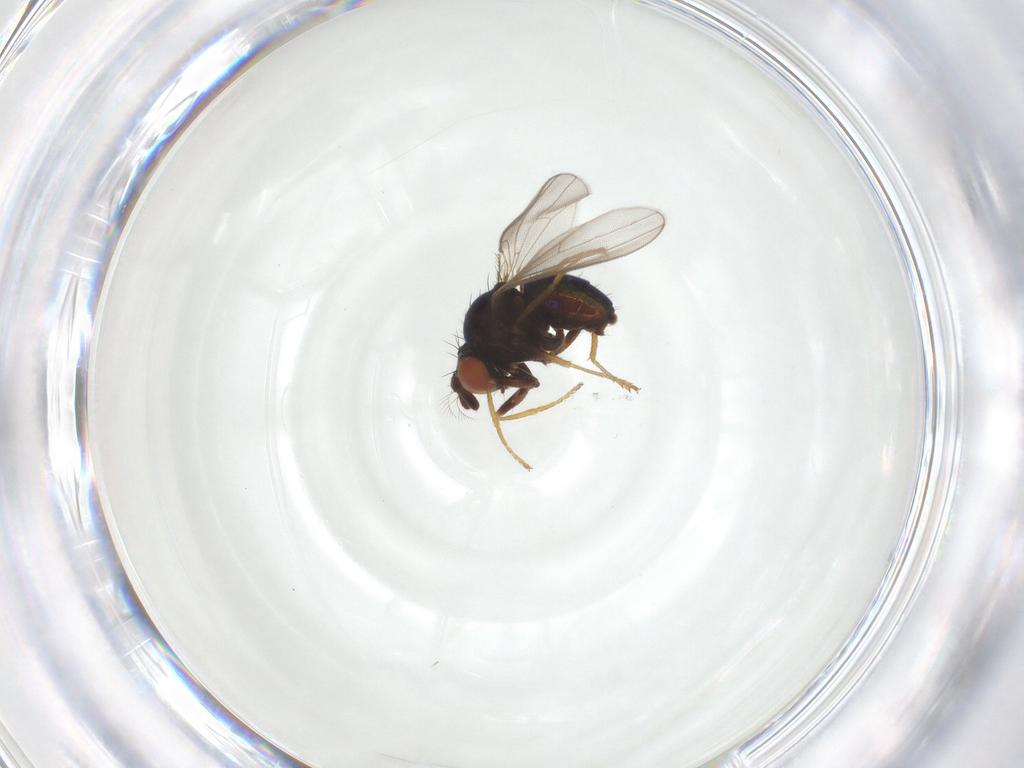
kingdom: Animalia
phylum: Arthropoda
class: Insecta
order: Diptera
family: Ephydridae
